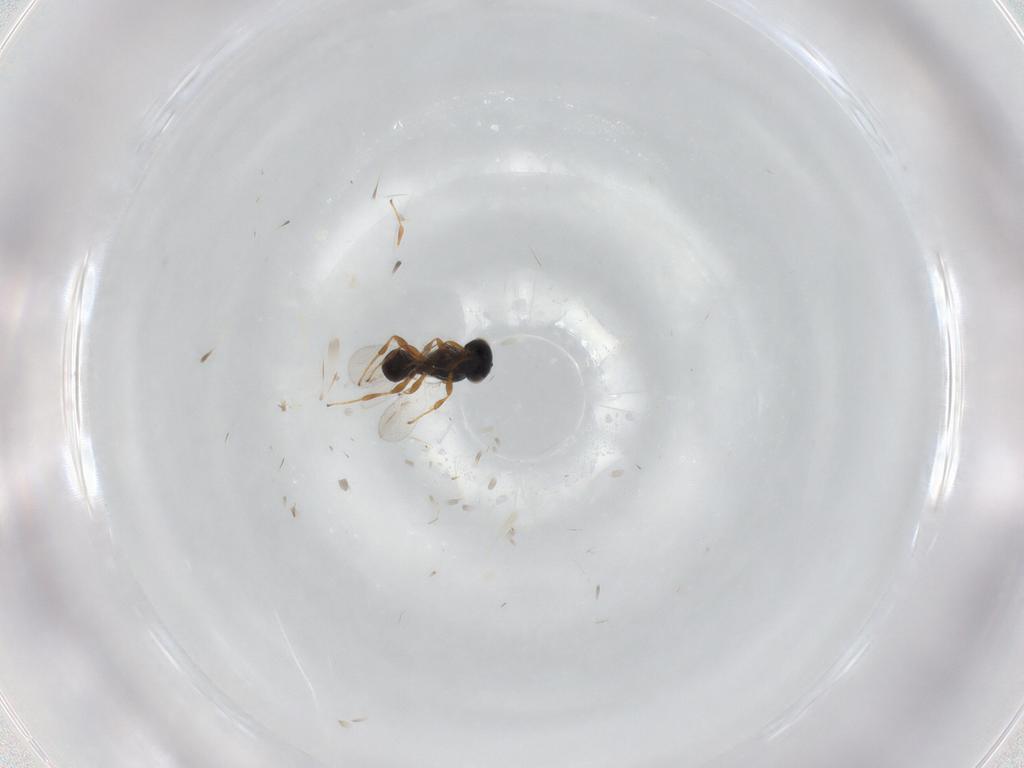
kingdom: Animalia
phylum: Arthropoda
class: Insecta
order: Hymenoptera
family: Platygastridae
